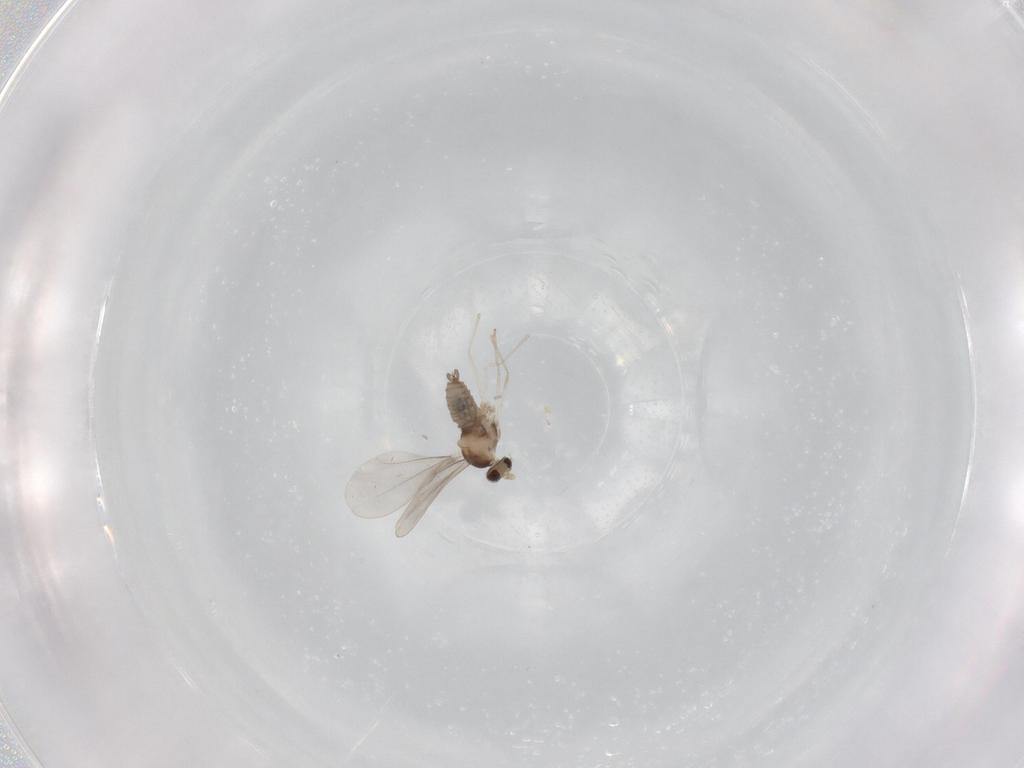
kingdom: Animalia
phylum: Arthropoda
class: Insecta
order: Diptera
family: Cecidomyiidae
